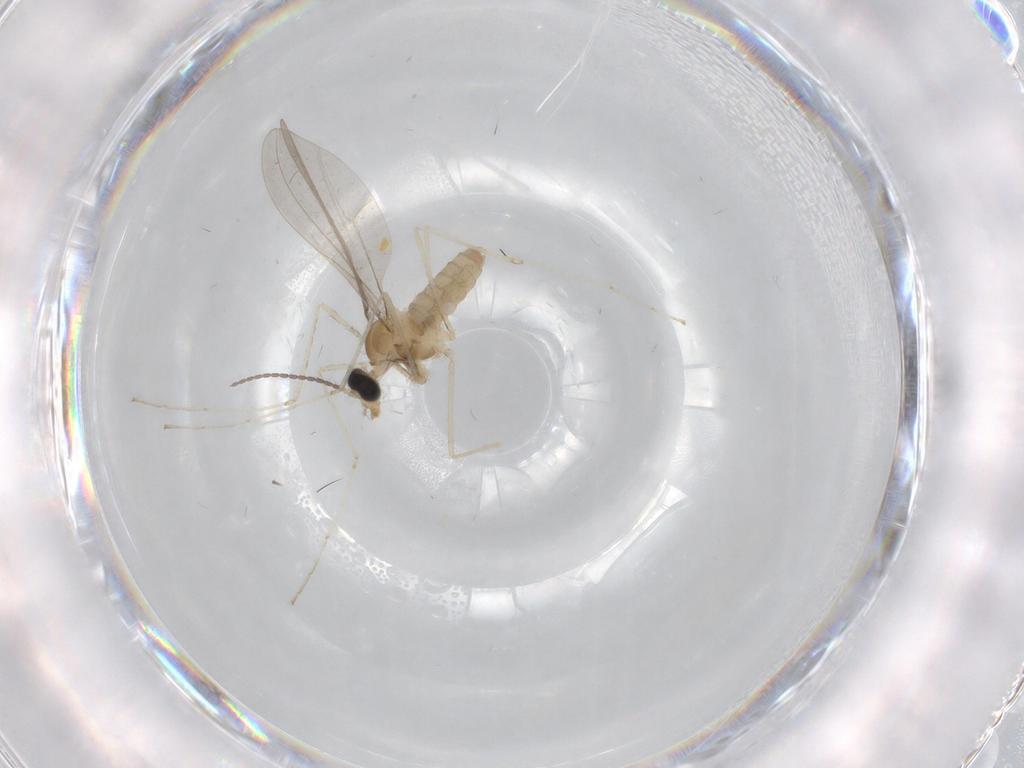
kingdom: Animalia
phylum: Arthropoda
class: Insecta
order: Diptera
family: Cecidomyiidae
